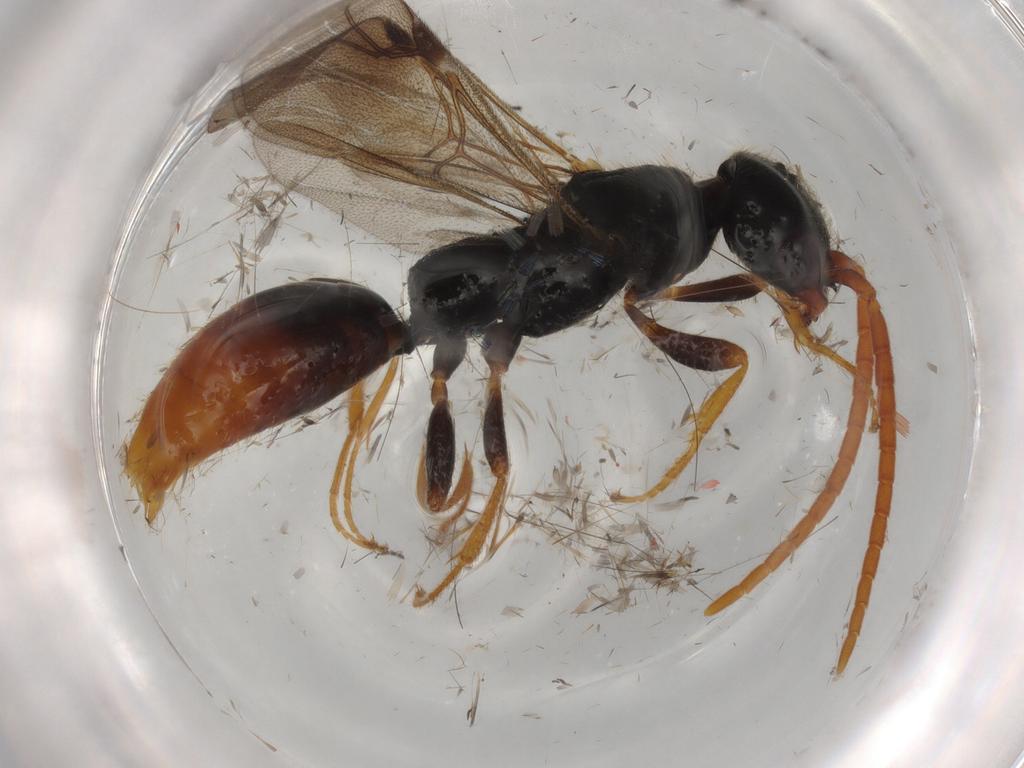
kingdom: Animalia
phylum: Arthropoda
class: Insecta
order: Hymenoptera
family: Bethylidae
